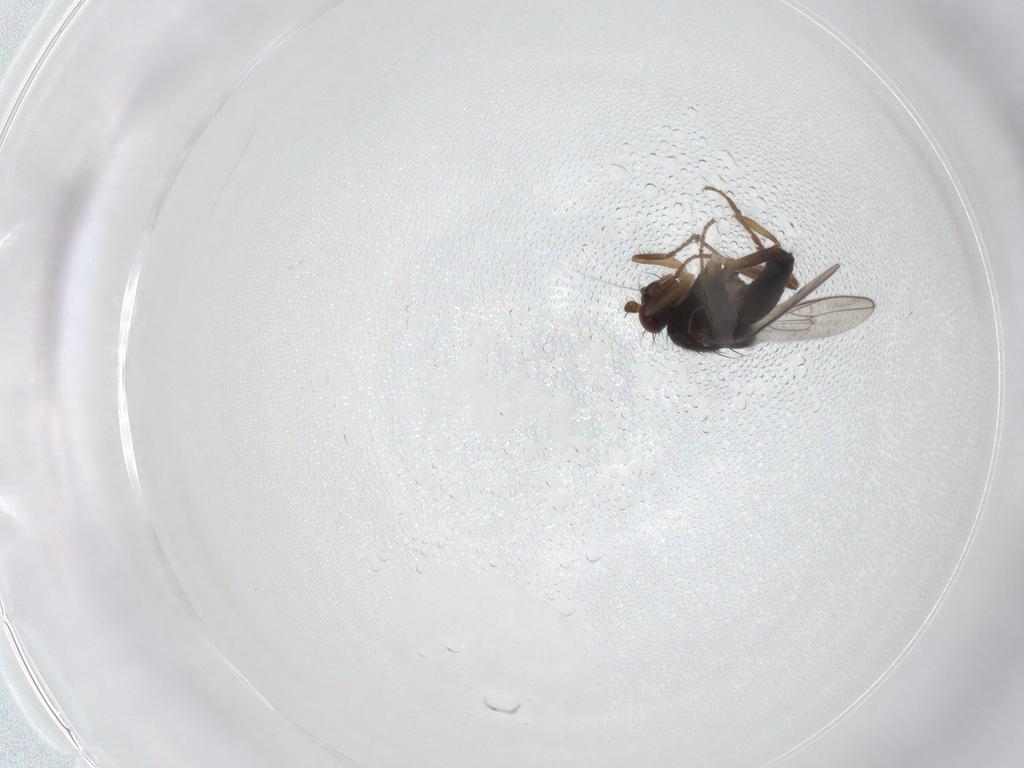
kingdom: Animalia
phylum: Arthropoda
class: Insecta
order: Diptera
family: Sphaeroceridae
